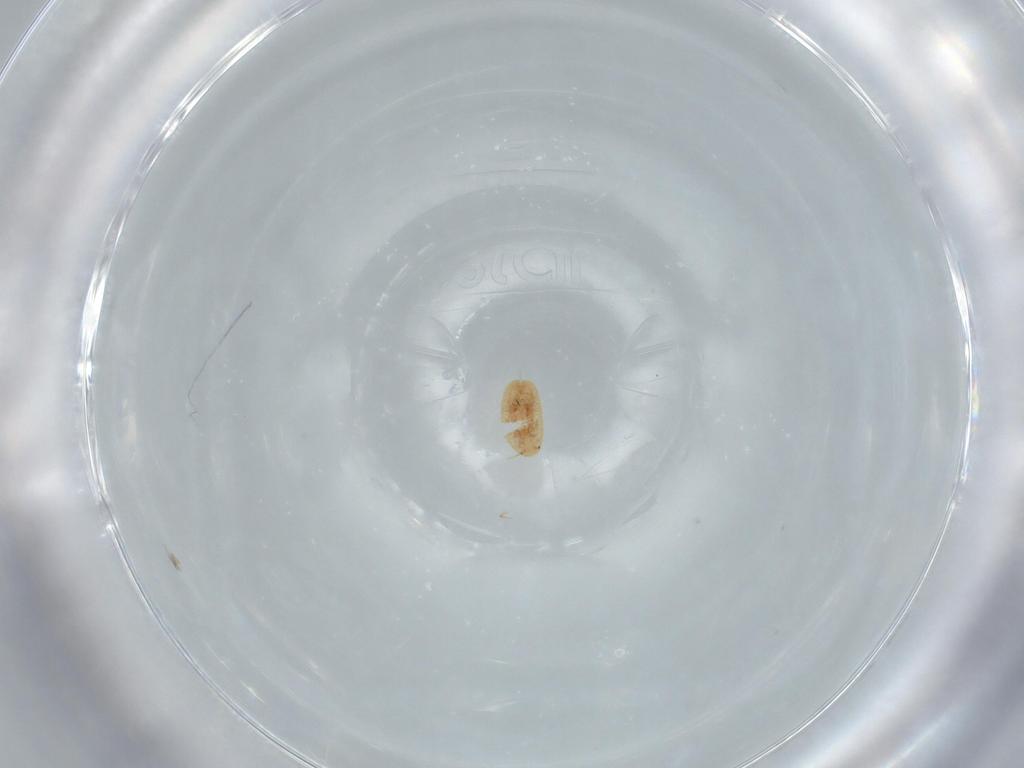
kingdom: Animalia
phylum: Arthropoda
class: Insecta
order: Hemiptera
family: Aleyrodidae
